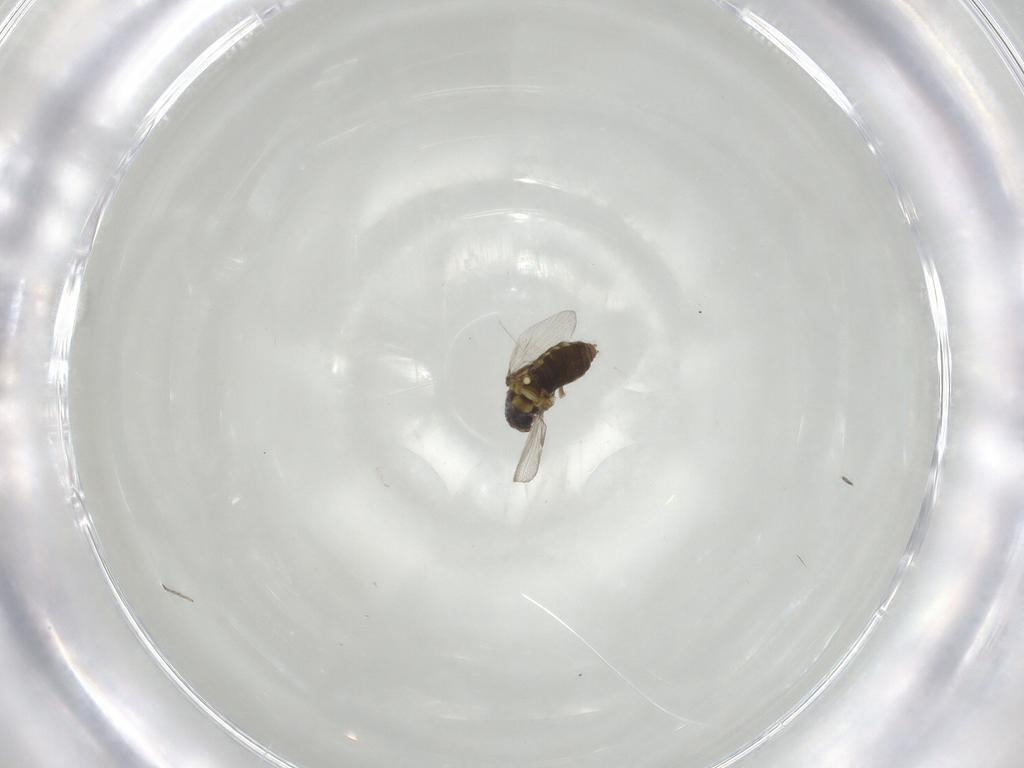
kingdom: Animalia
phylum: Arthropoda
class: Insecta
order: Diptera
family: Ceratopogonidae
